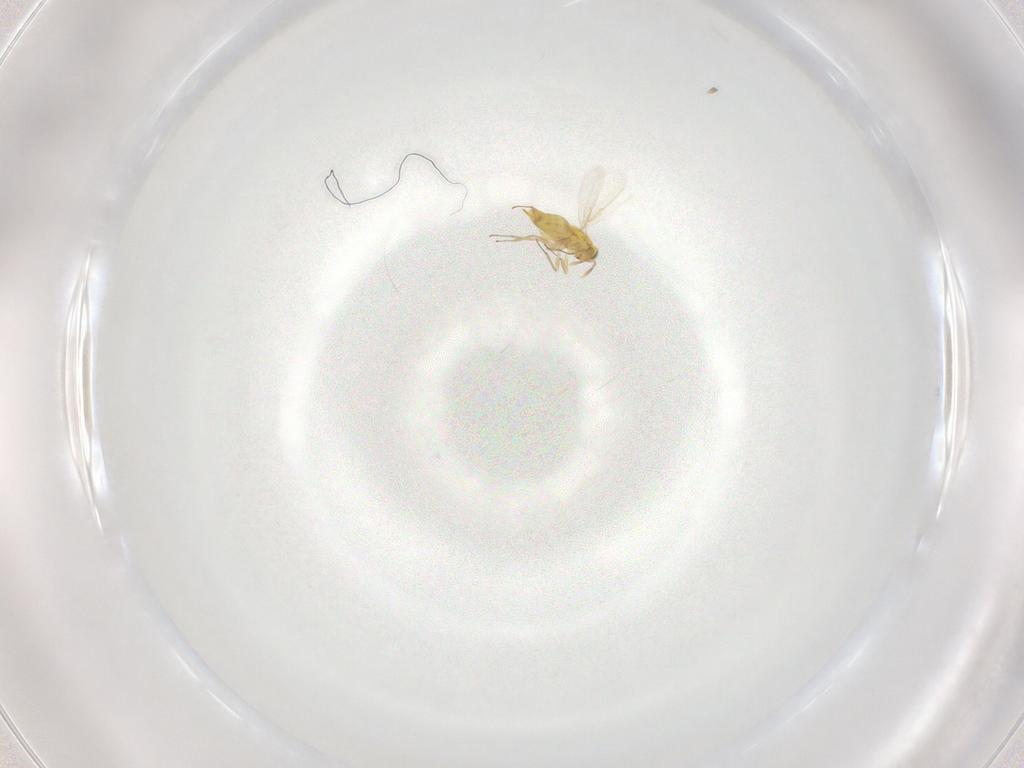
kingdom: Animalia
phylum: Arthropoda
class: Insecta
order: Hymenoptera
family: Aphelinidae
